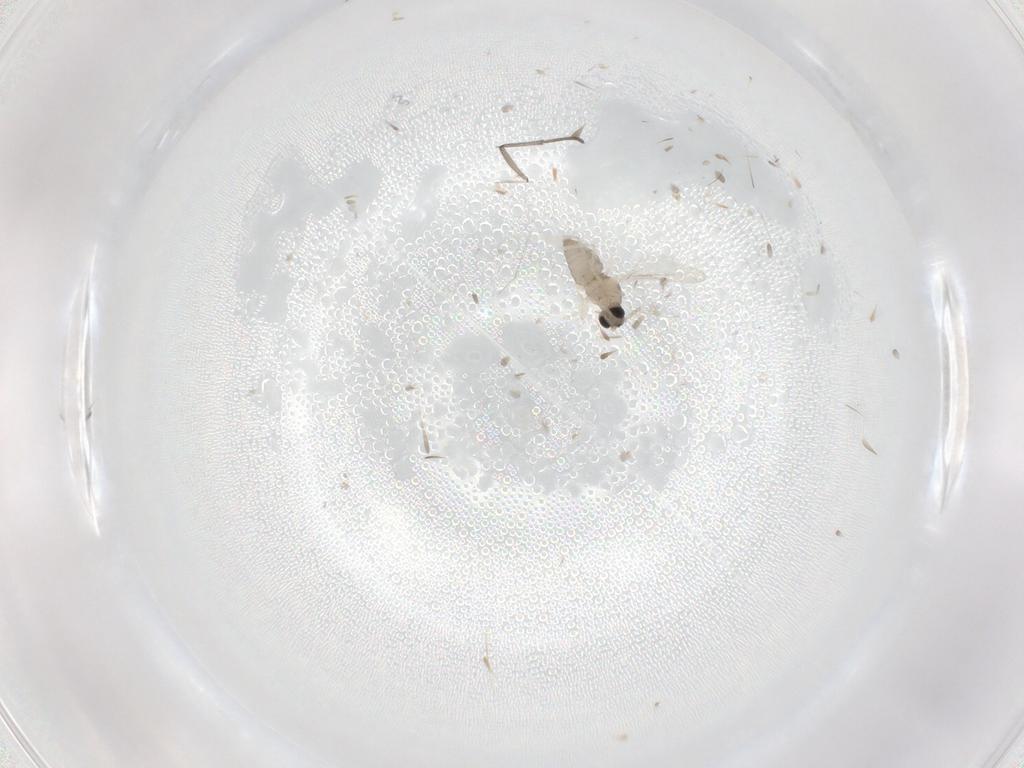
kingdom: Animalia
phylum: Arthropoda
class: Insecta
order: Diptera
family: Cecidomyiidae
